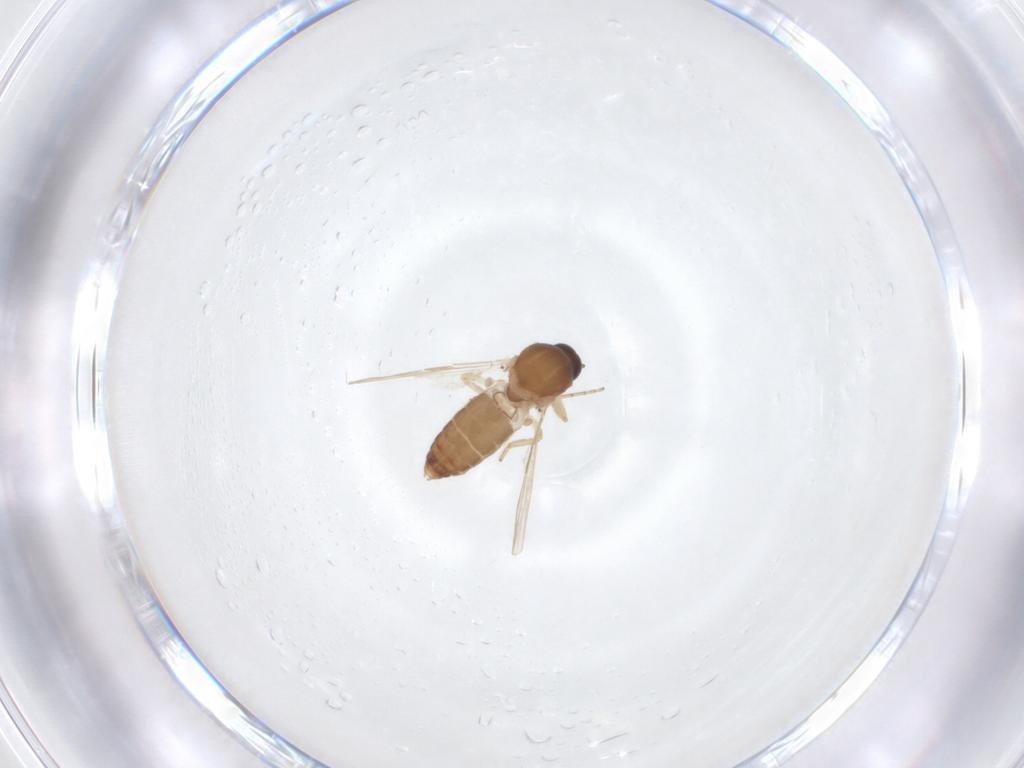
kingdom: Animalia
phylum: Arthropoda
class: Insecta
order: Diptera
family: Ceratopogonidae
